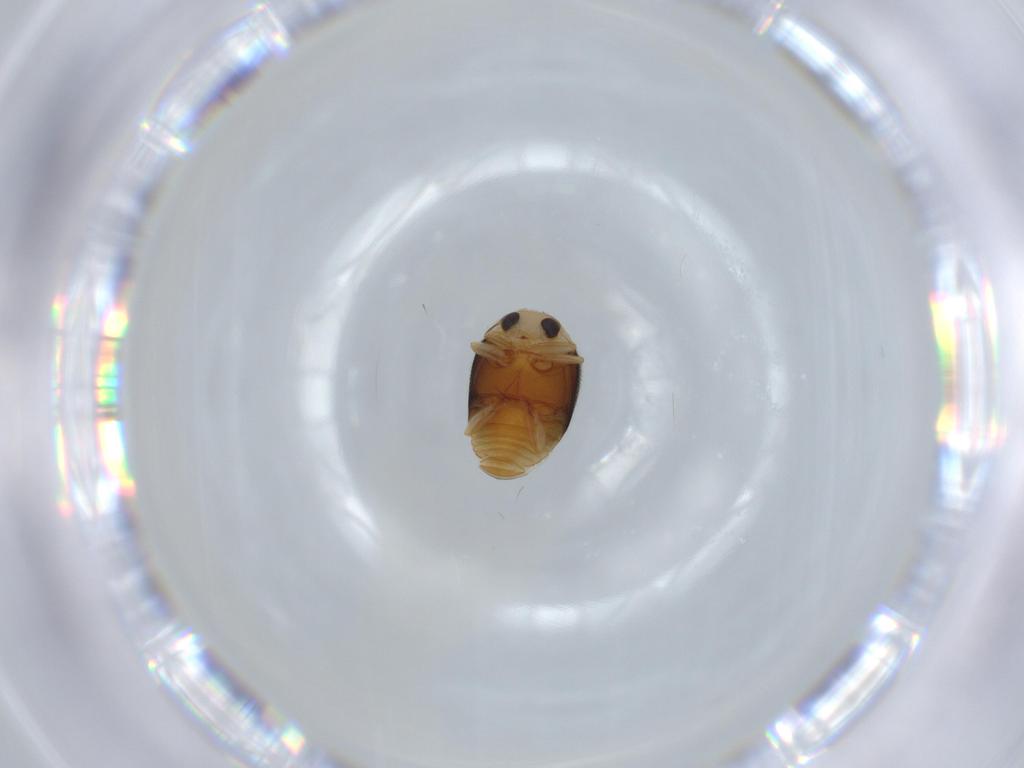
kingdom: Animalia
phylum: Arthropoda
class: Insecta
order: Coleoptera
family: Coccinellidae
